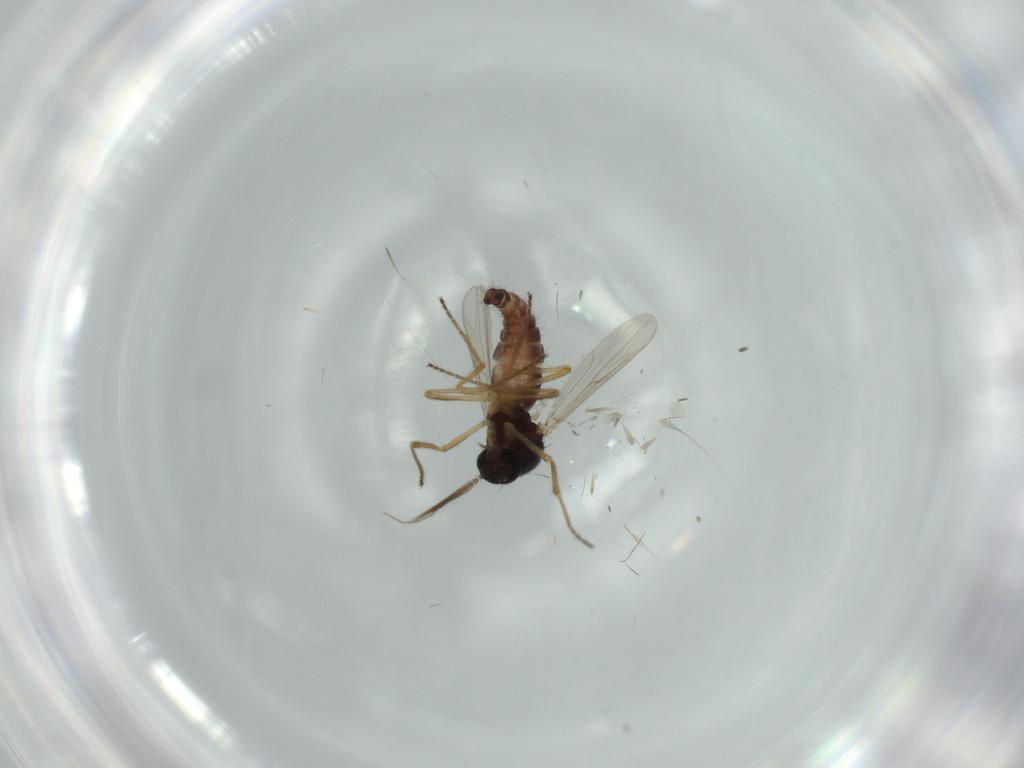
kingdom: Animalia
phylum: Arthropoda
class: Insecta
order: Diptera
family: Ceratopogonidae
